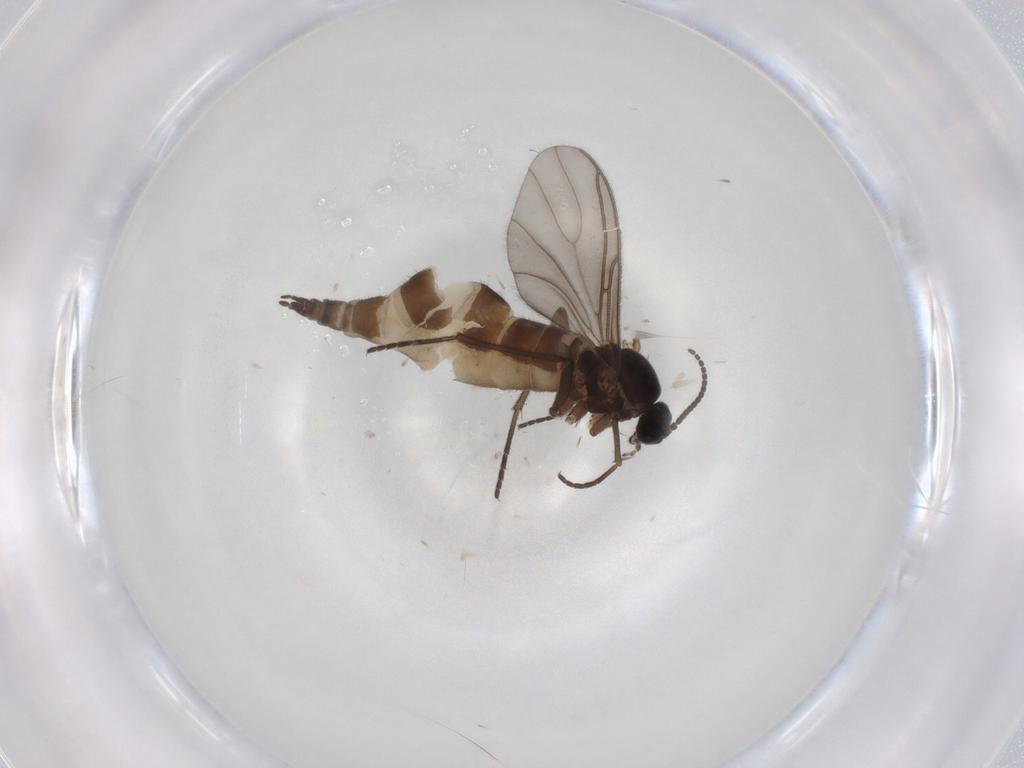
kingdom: Animalia
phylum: Arthropoda
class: Insecta
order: Diptera
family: Sciaridae
